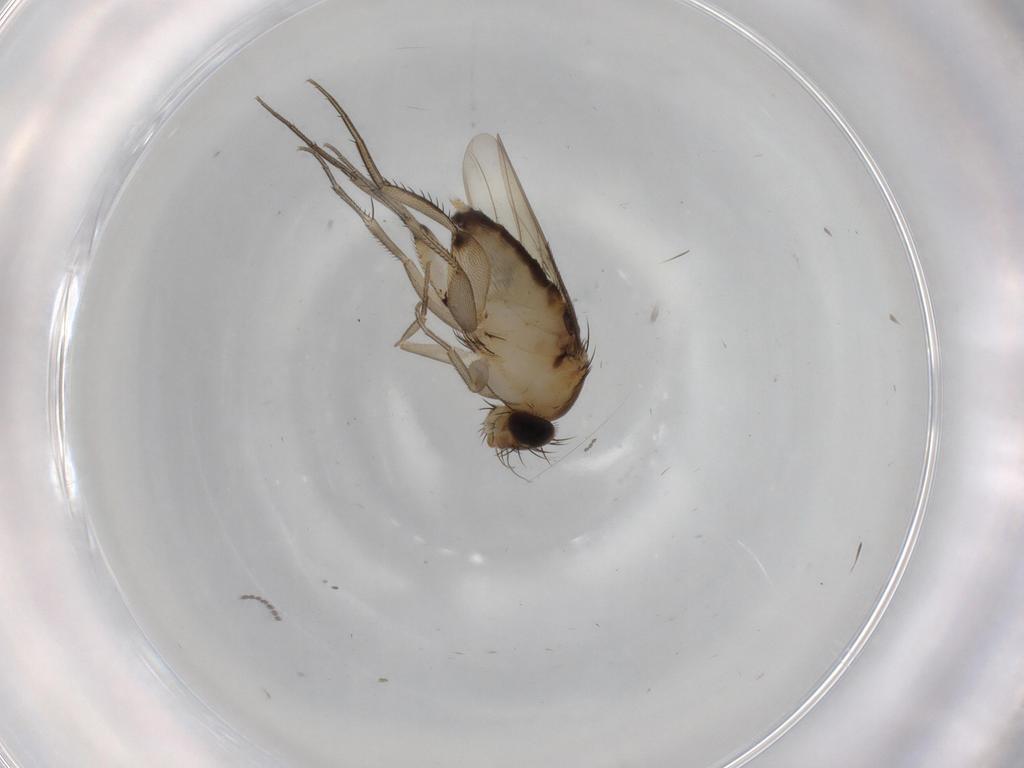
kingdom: Animalia
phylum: Arthropoda
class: Insecta
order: Diptera
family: Phoridae
